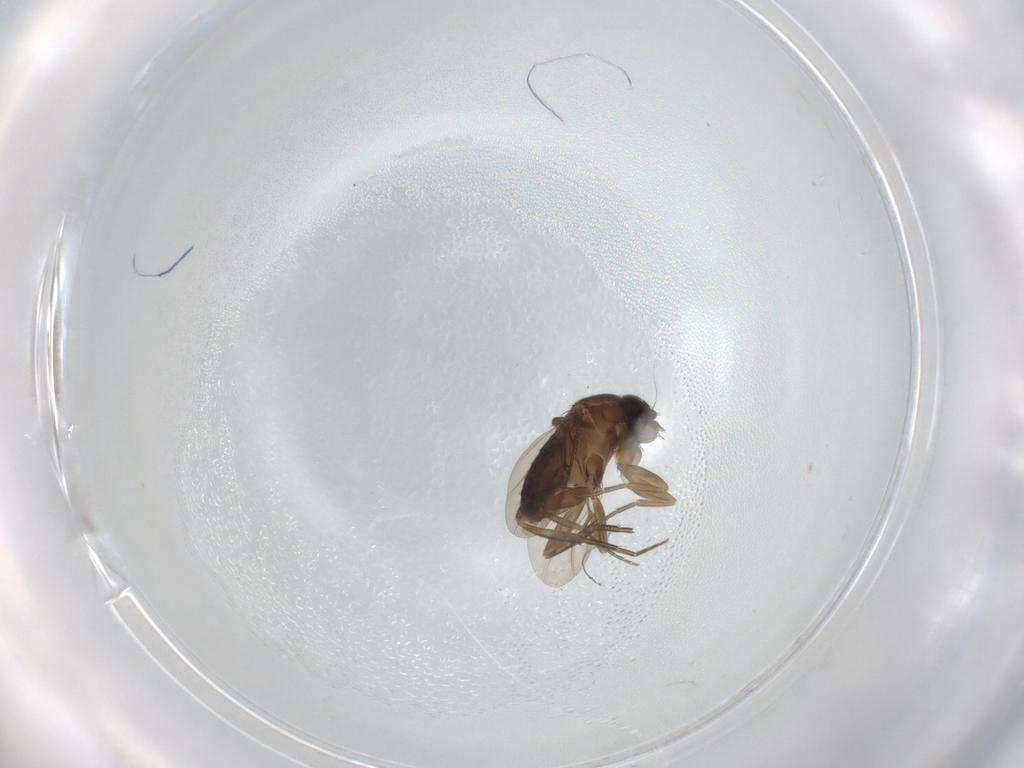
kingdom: Animalia
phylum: Arthropoda
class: Insecta
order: Diptera
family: Phoridae
